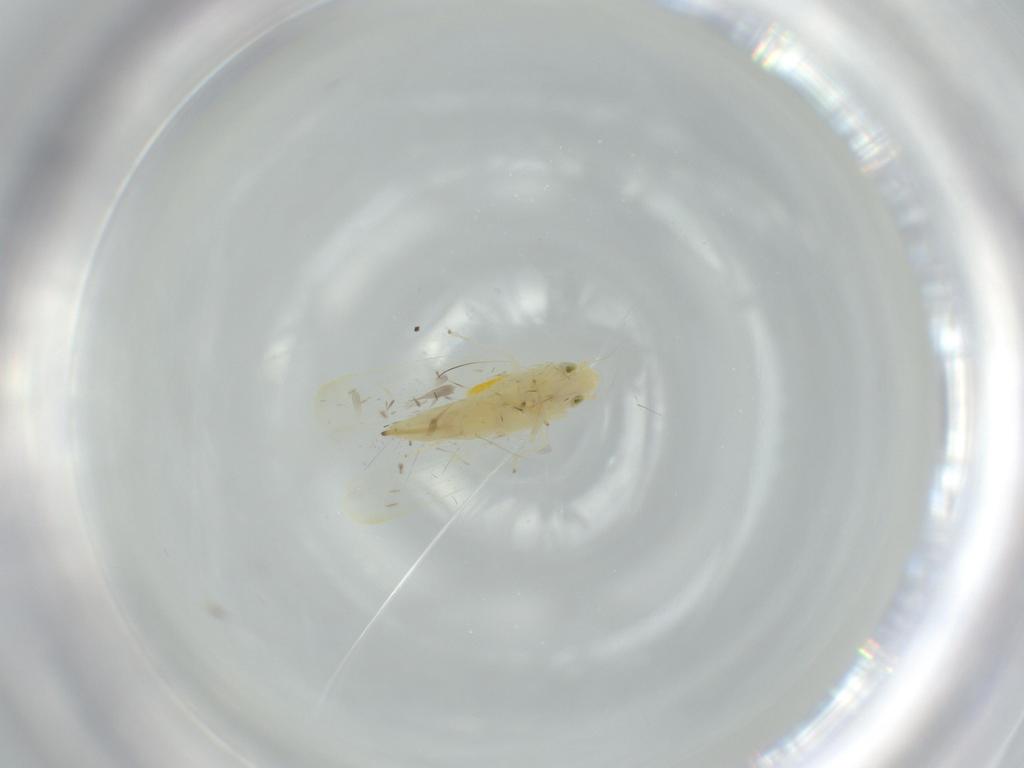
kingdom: Animalia
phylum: Arthropoda
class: Insecta
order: Hemiptera
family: Cicadellidae
